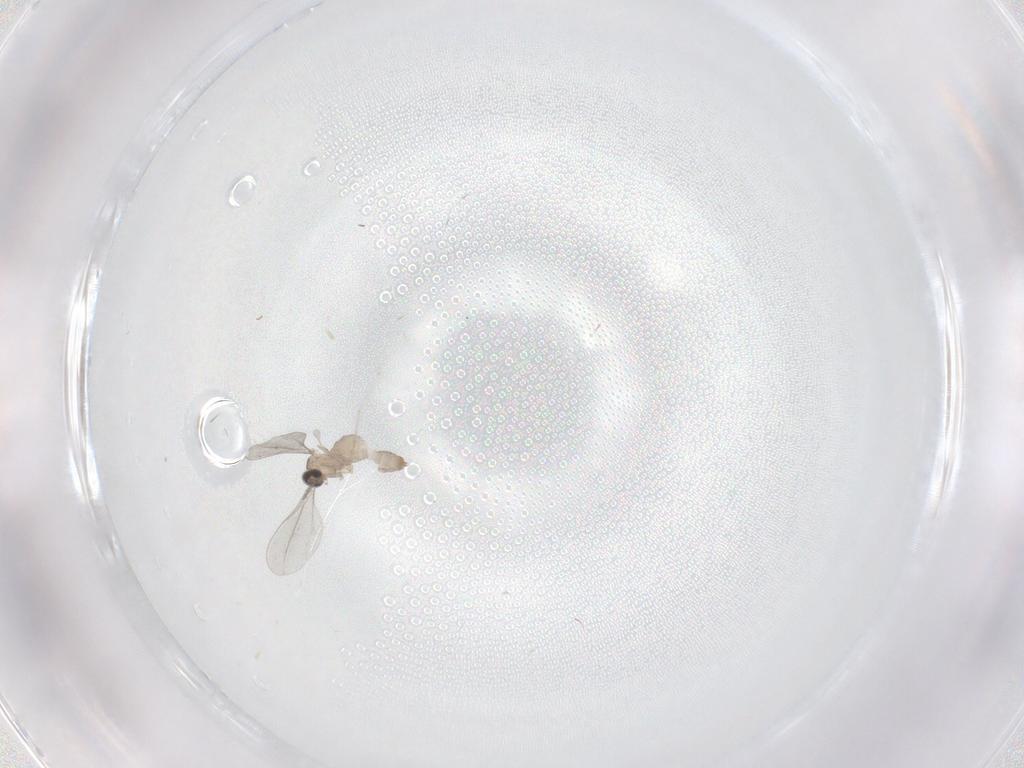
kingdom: Animalia
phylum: Arthropoda
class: Insecta
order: Diptera
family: Cecidomyiidae
